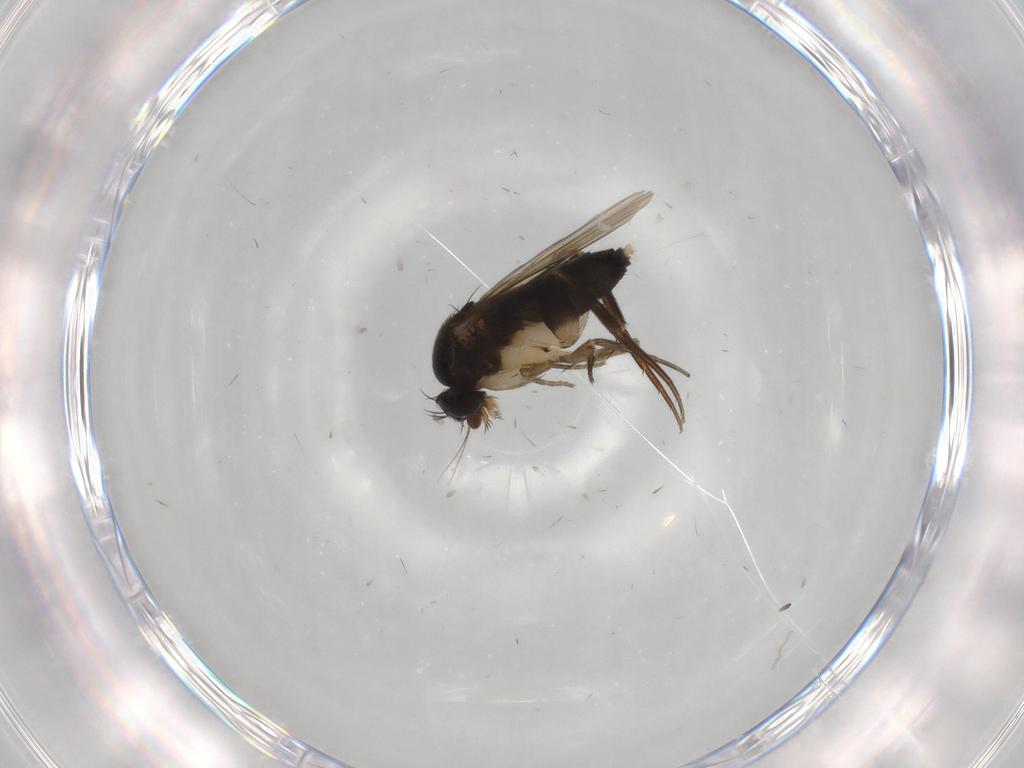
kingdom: Animalia
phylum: Arthropoda
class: Insecta
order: Diptera
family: Phoridae
